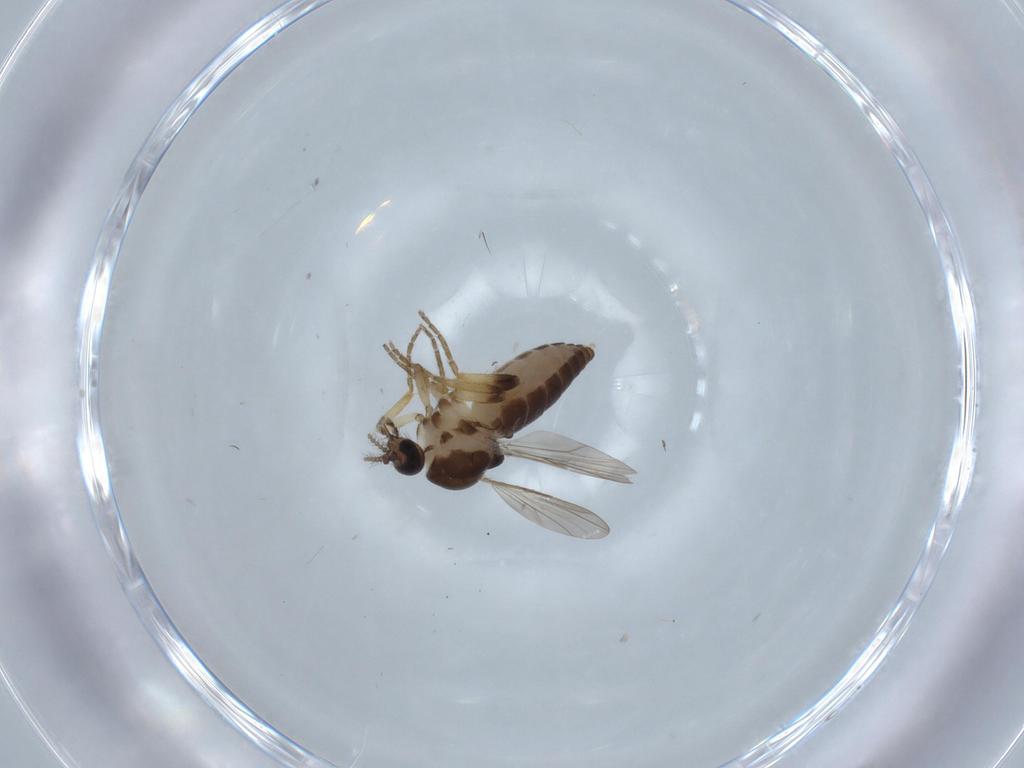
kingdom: Animalia
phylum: Arthropoda
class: Insecta
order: Diptera
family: Ceratopogonidae
